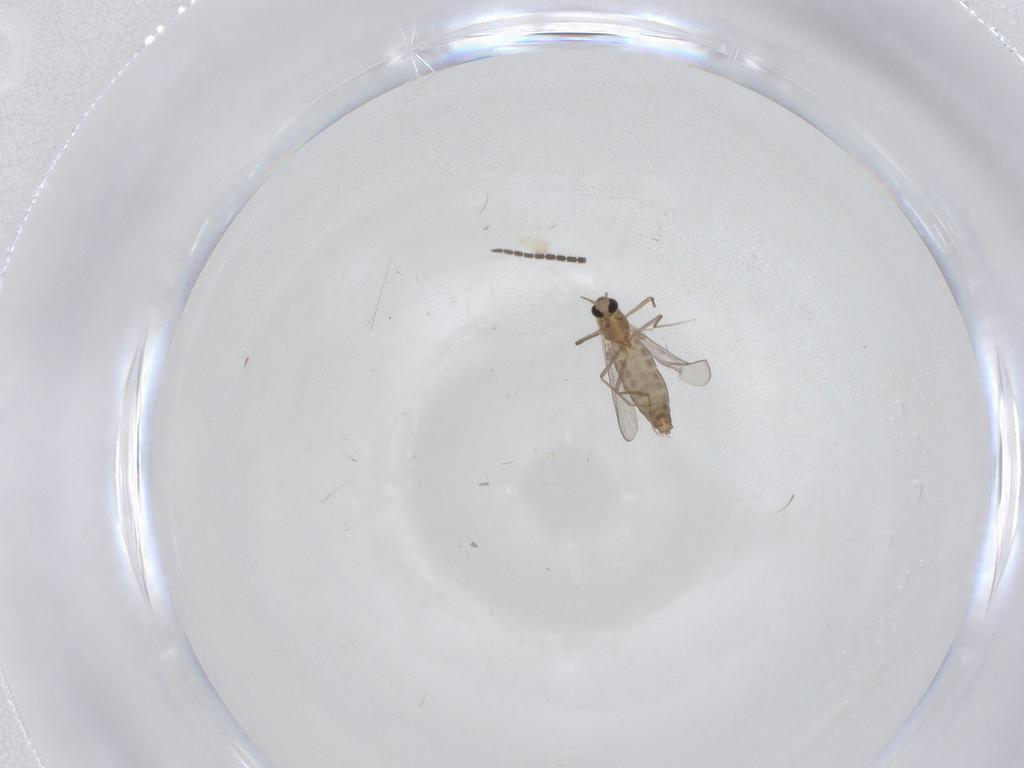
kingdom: Animalia
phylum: Arthropoda
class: Insecta
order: Diptera
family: Chironomidae
